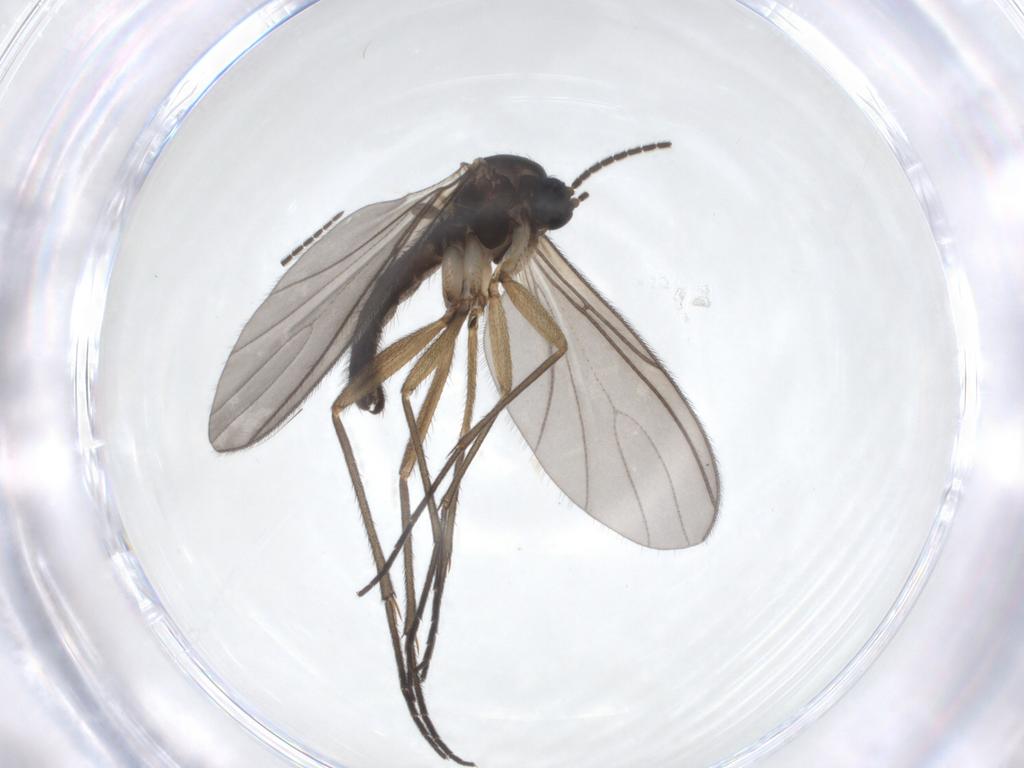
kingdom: Animalia
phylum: Arthropoda
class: Insecta
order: Diptera
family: Sciaridae
